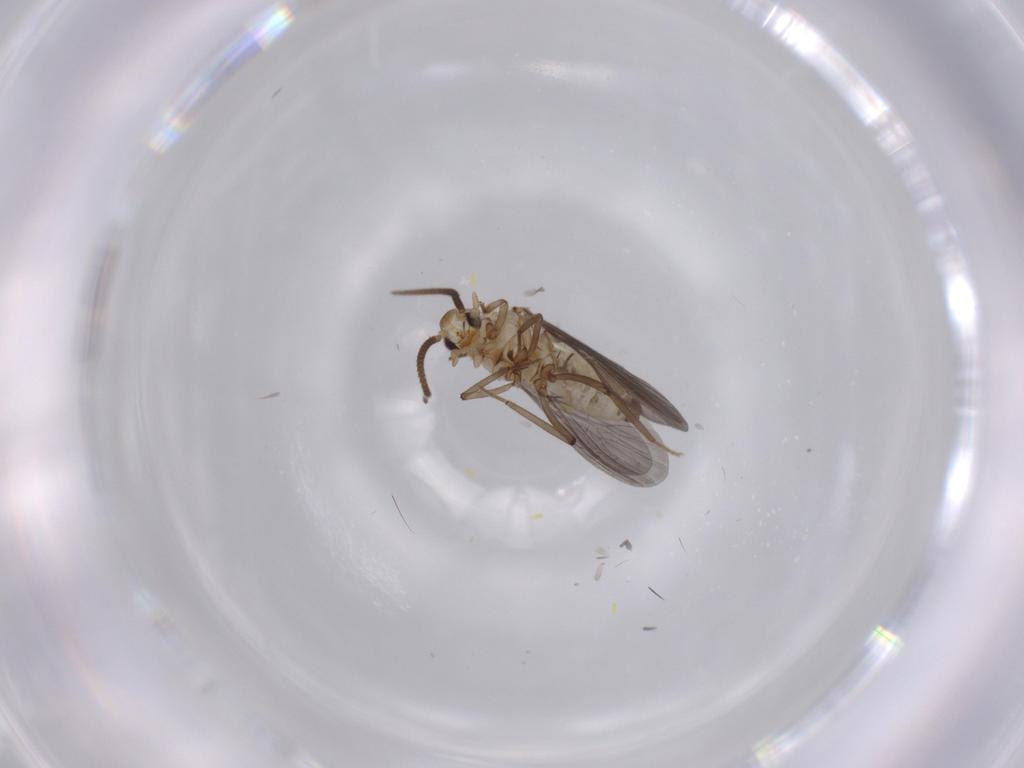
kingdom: Animalia
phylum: Arthropoda
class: Insecta
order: Neuroptera
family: Coniopterygidae
